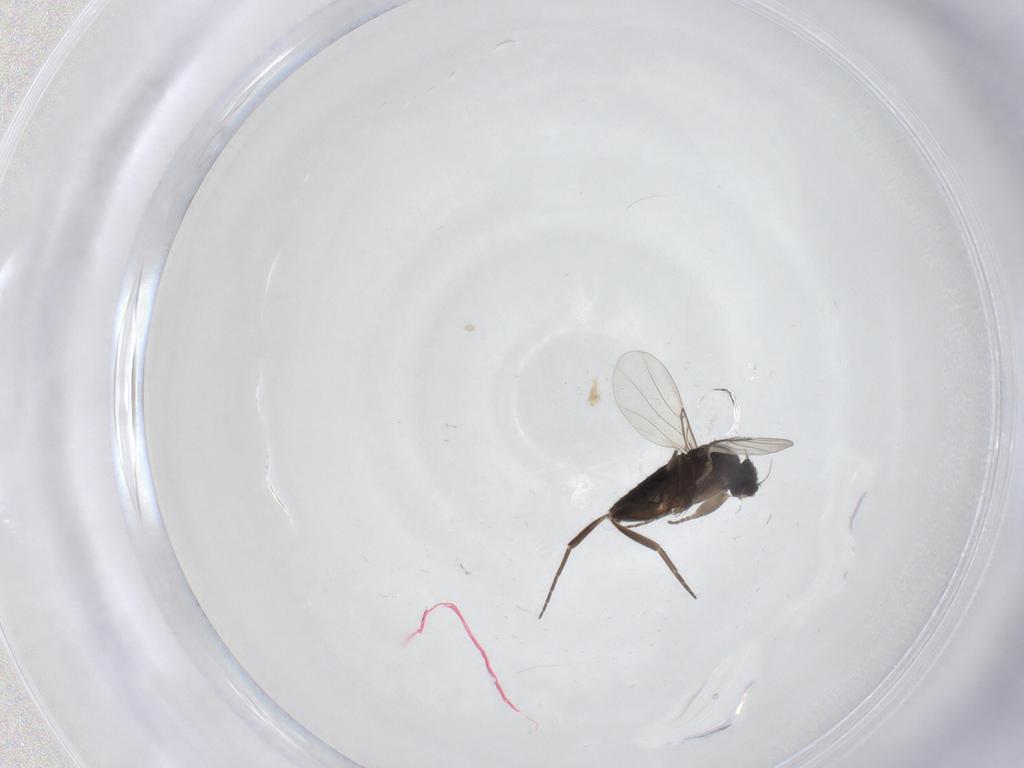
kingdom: Animalia
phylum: Arthropoda
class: Insecta
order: Diptera
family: Phoridae
